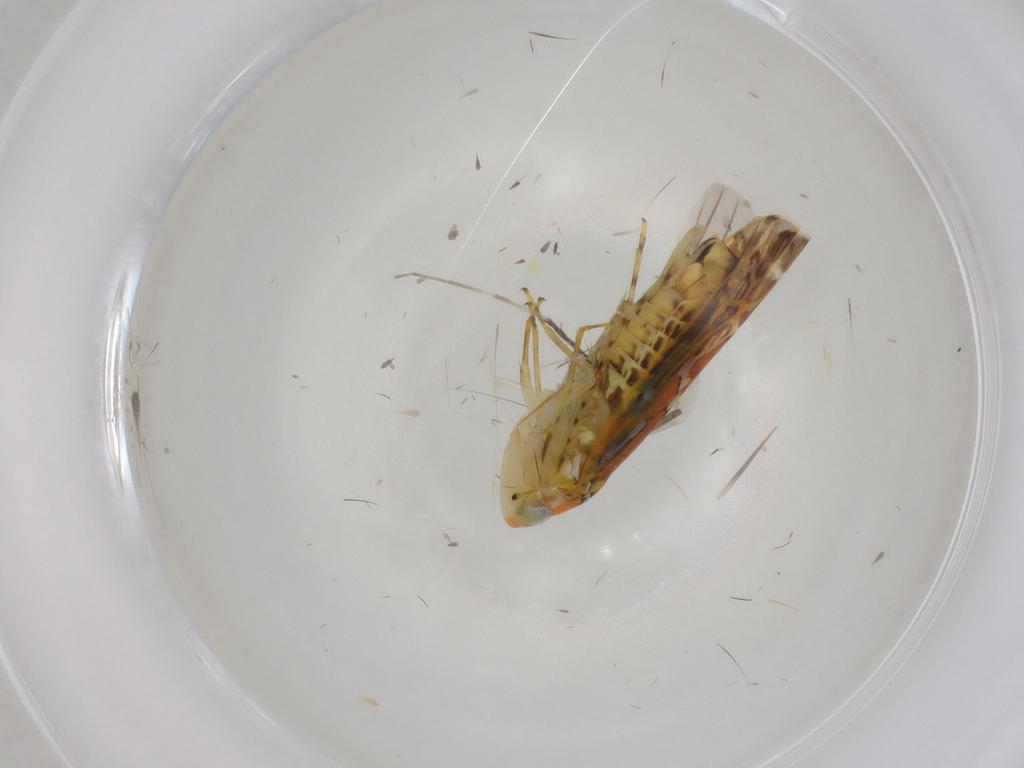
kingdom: Animalia
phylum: Arthropoda
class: Insecta
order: Hemiptera
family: Cicadellidae
